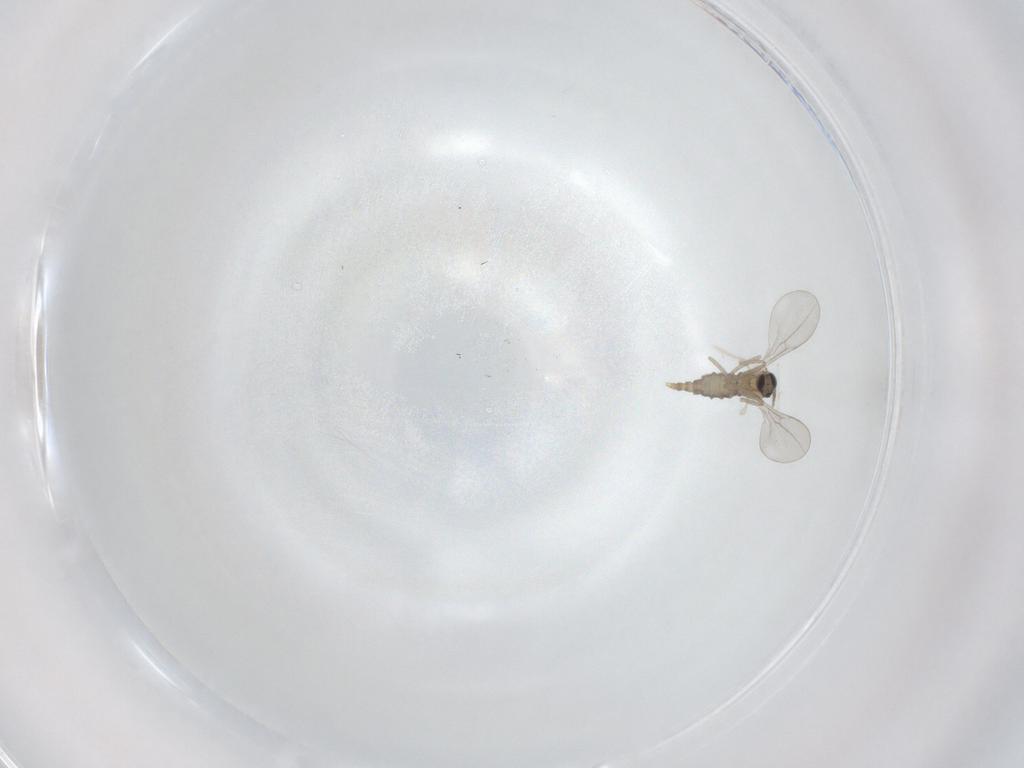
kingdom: Animalia
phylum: Arthropoda
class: Insecta
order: Diptera
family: Cecidomyiidae
